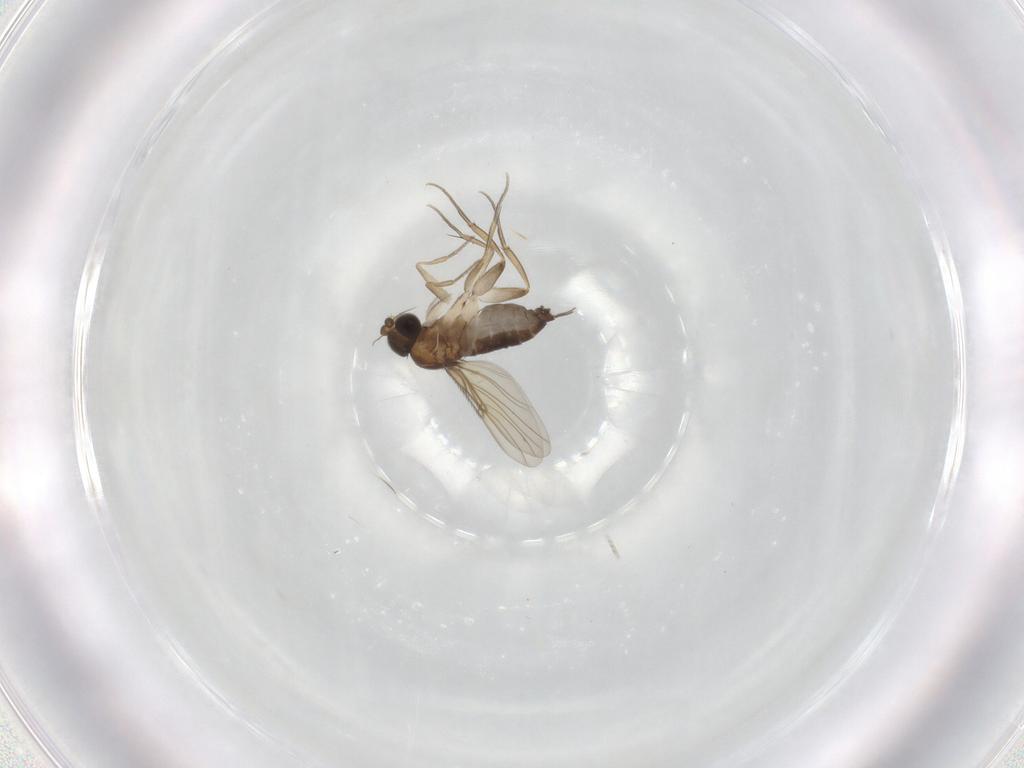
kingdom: Animalia
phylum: Arthropoda
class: Insecta
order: Diptera
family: Phoridae
